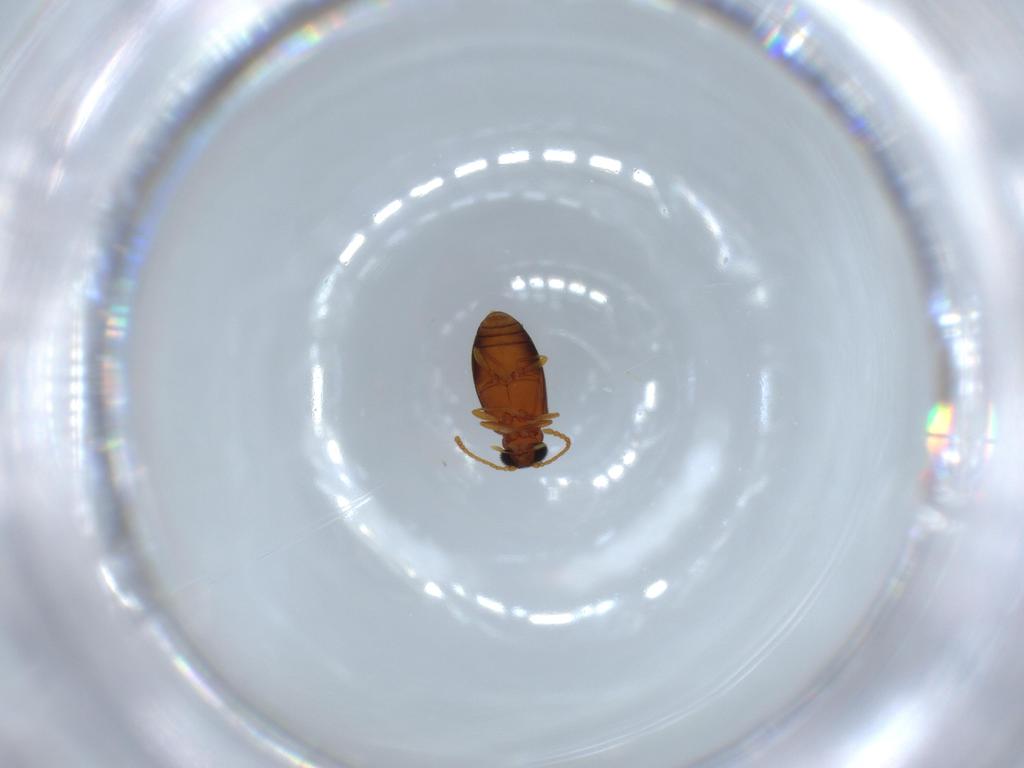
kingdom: Animalia
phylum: Arthropoda
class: Insecta
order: Coleoptera
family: Aderidae
